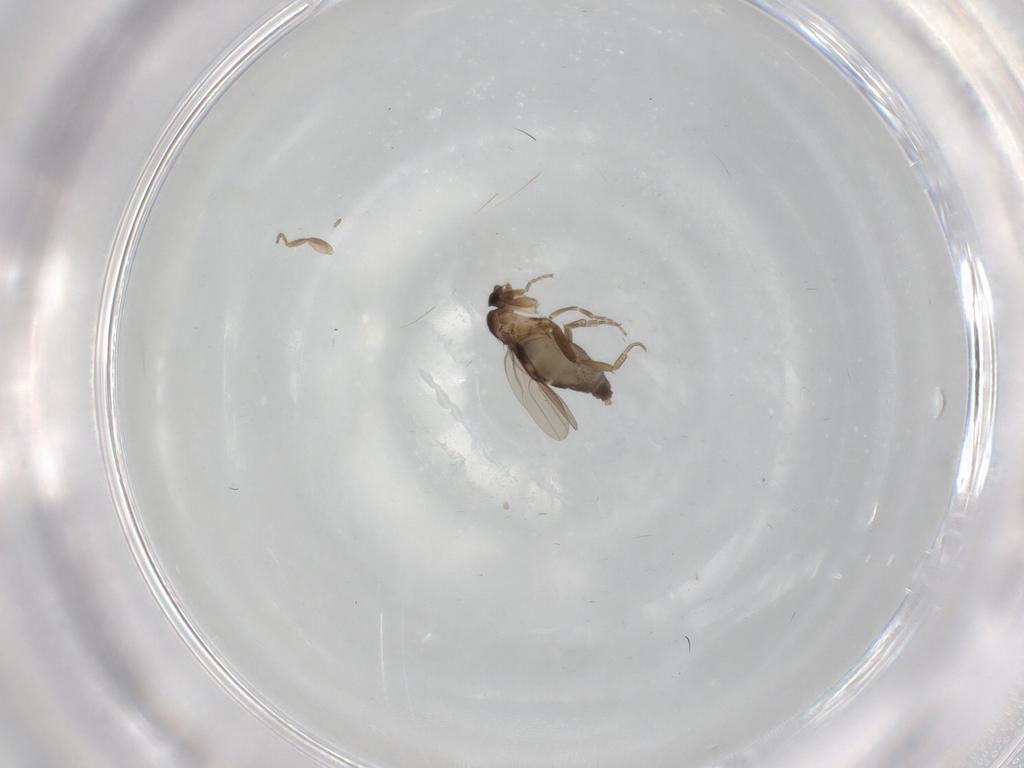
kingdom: Animalia
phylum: Arthropoda
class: Insecta
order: Diptera
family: Phoridae
